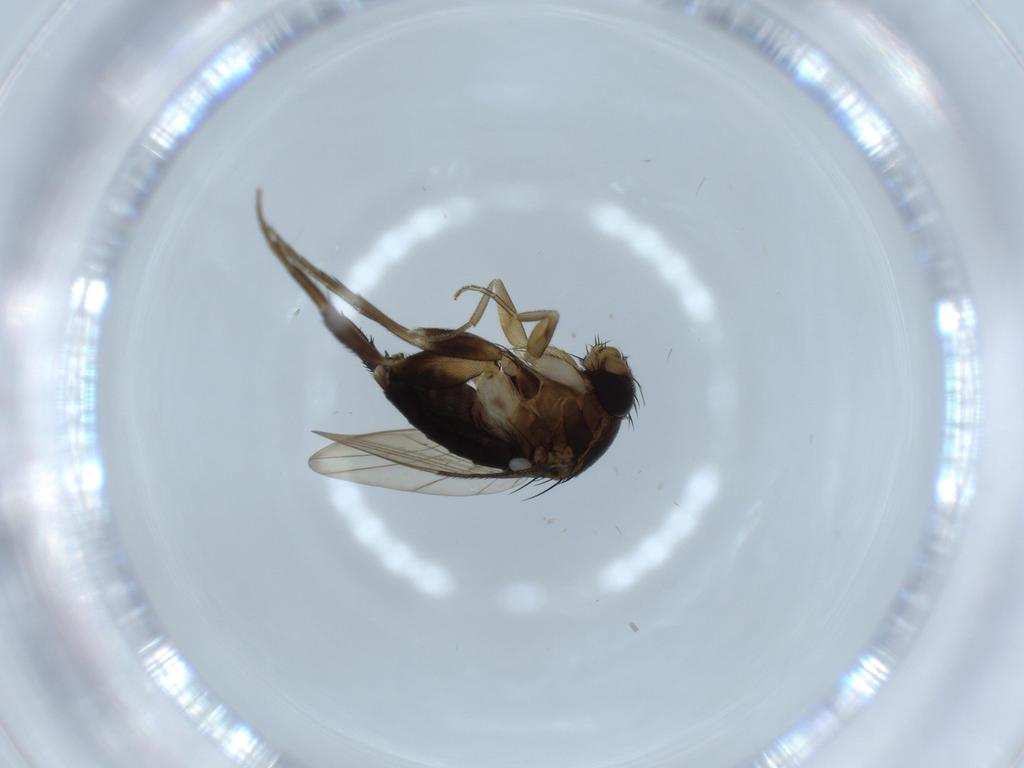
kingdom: Animalia
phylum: Arthropoda
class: Insecta
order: Diptera
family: Phoridae
